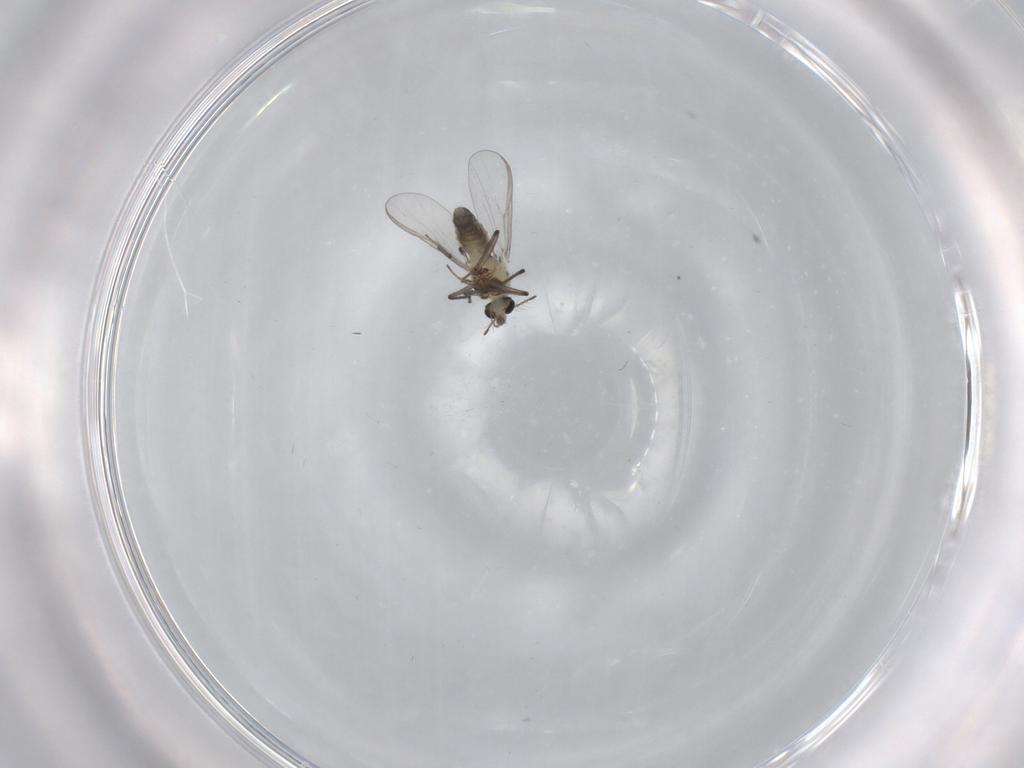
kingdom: Animalia
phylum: Arthropoda
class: Insecta
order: Diptera
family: Chironomidae
